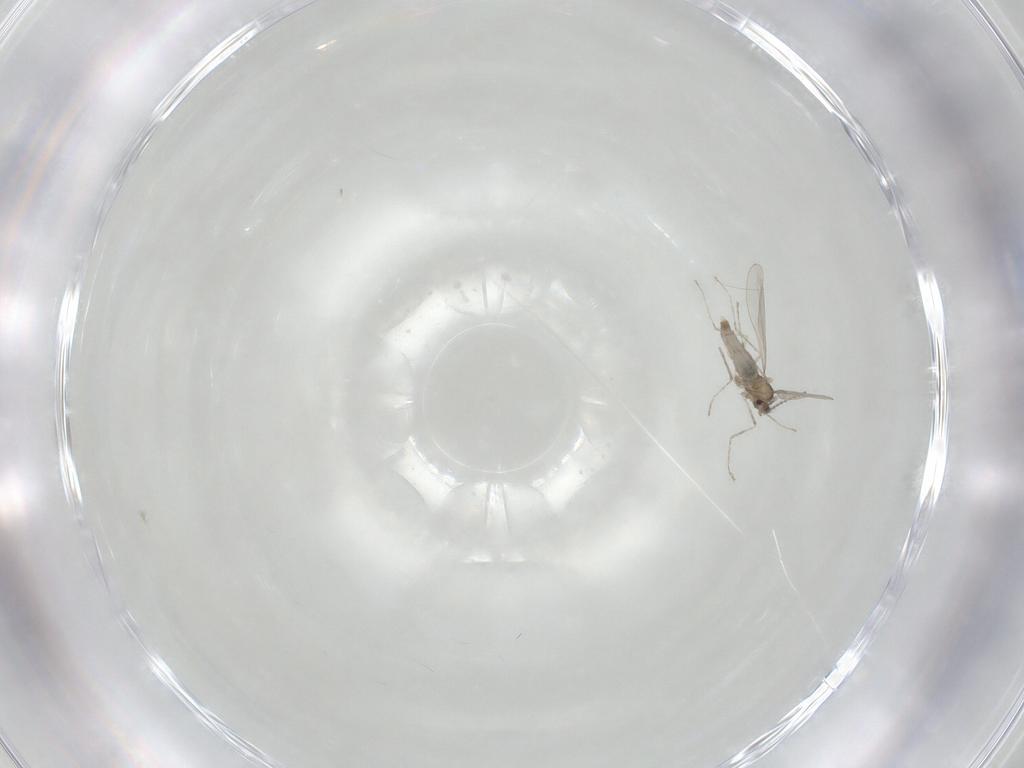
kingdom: Animalia
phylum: Arthropoda
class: Insecta
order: Diptera
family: Cecidomyiidae
